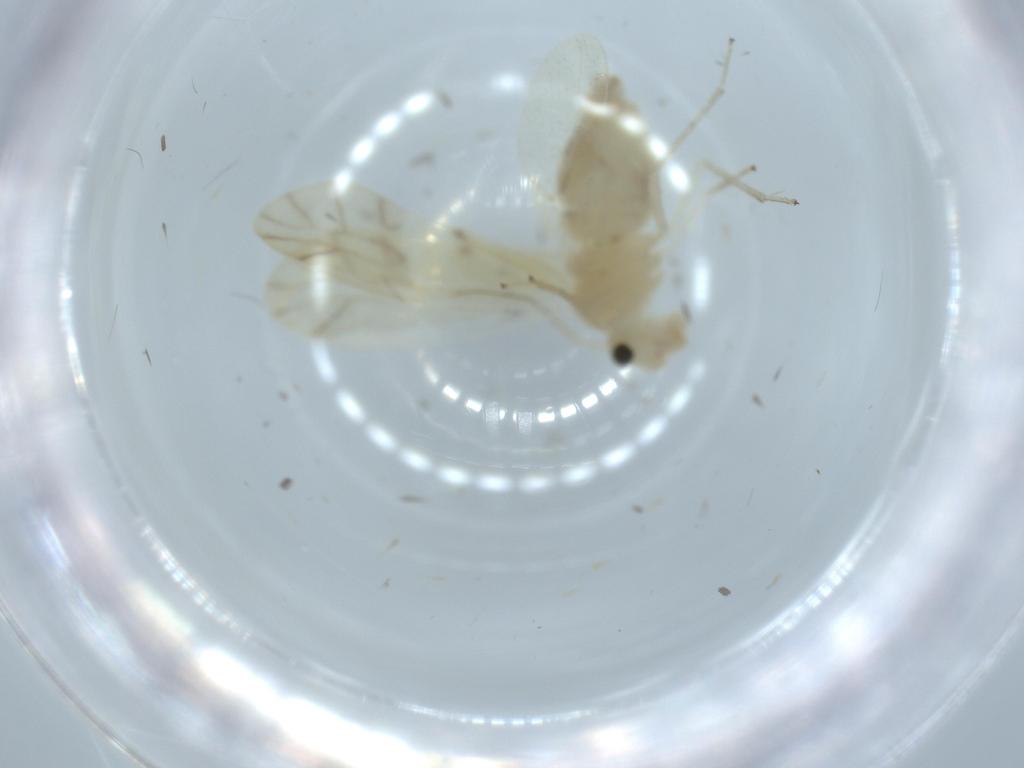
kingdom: Animalia
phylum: Arthropoda
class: Insecta
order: Psocodea
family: Caeciliusidae
